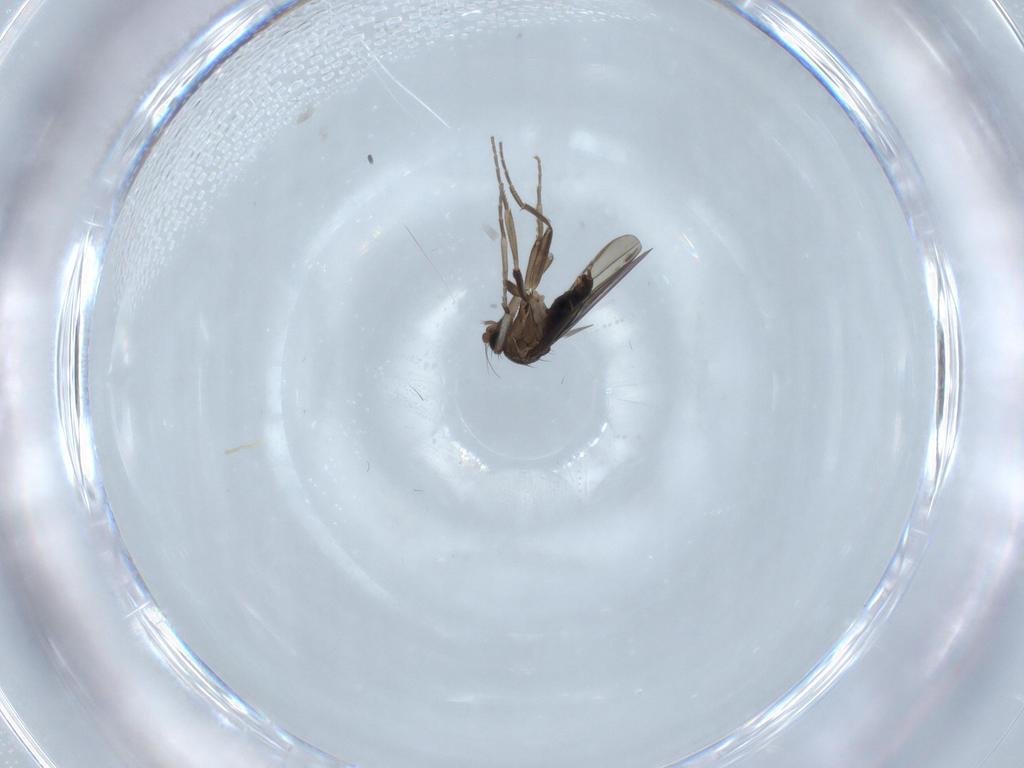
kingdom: Animalia
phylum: Arthropoda
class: Insecta
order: Diptera
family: Phoridae
